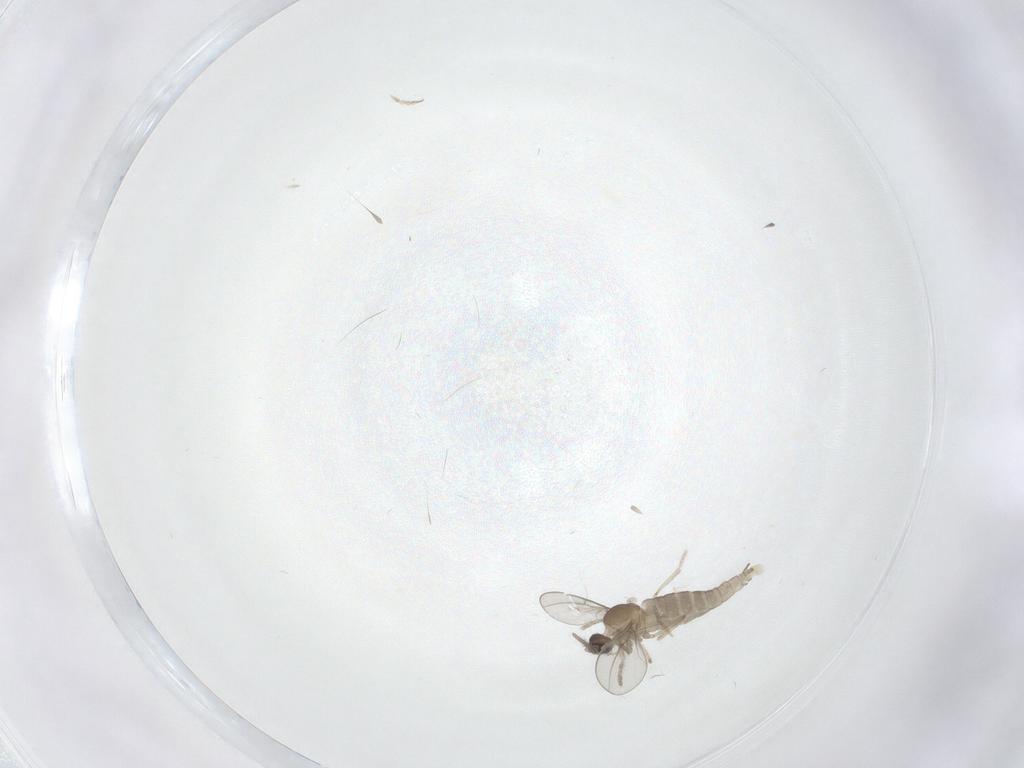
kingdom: Animalia
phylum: Arthropoda
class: Insecta
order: Diptera
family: Cecidomyiidae
